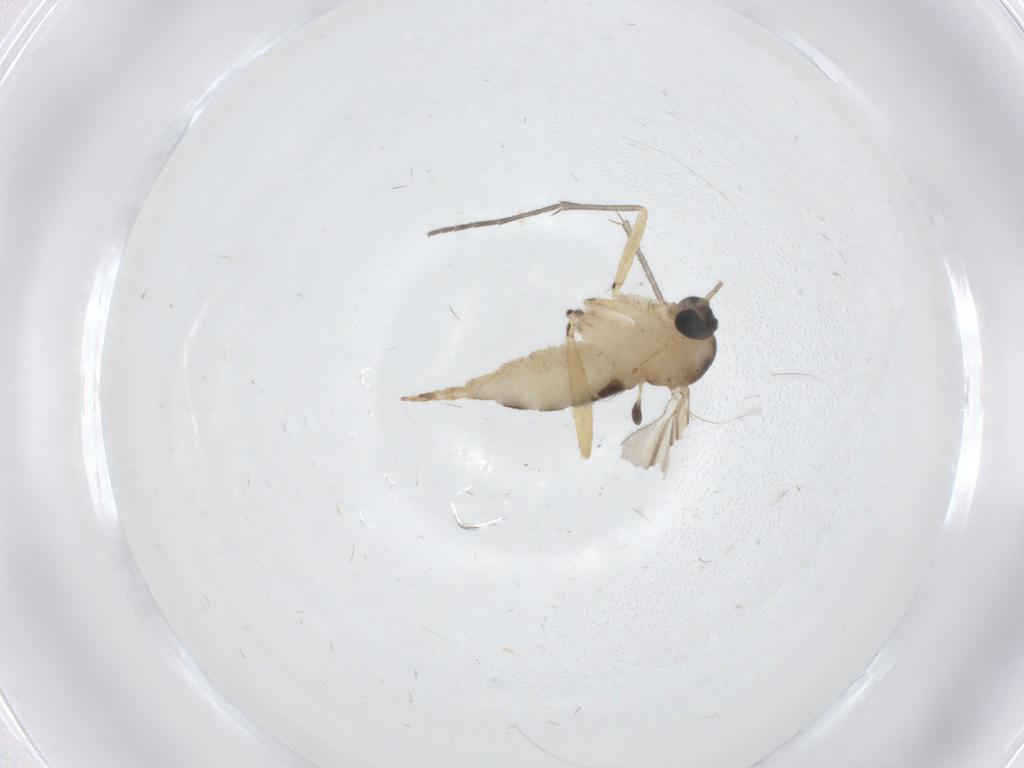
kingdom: Animalia
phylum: Arthropoda
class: Insecta
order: Diptera
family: Sciaridae
